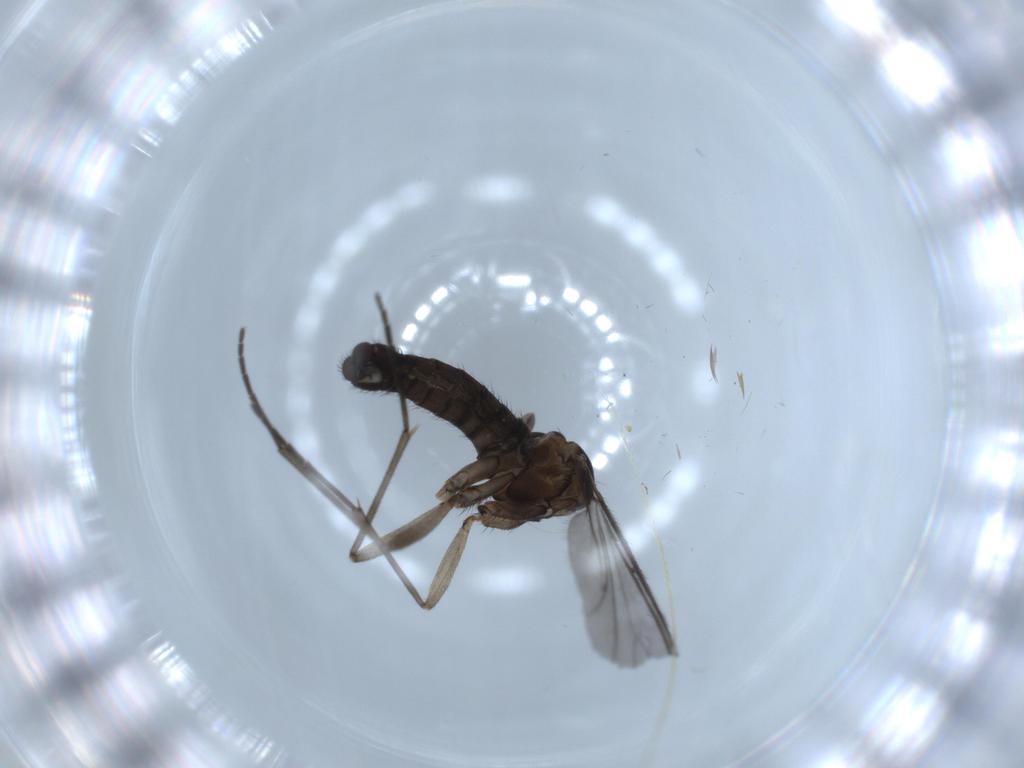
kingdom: Animalia
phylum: Arthropoda
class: Insecta
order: Diptera
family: Sciaridae
